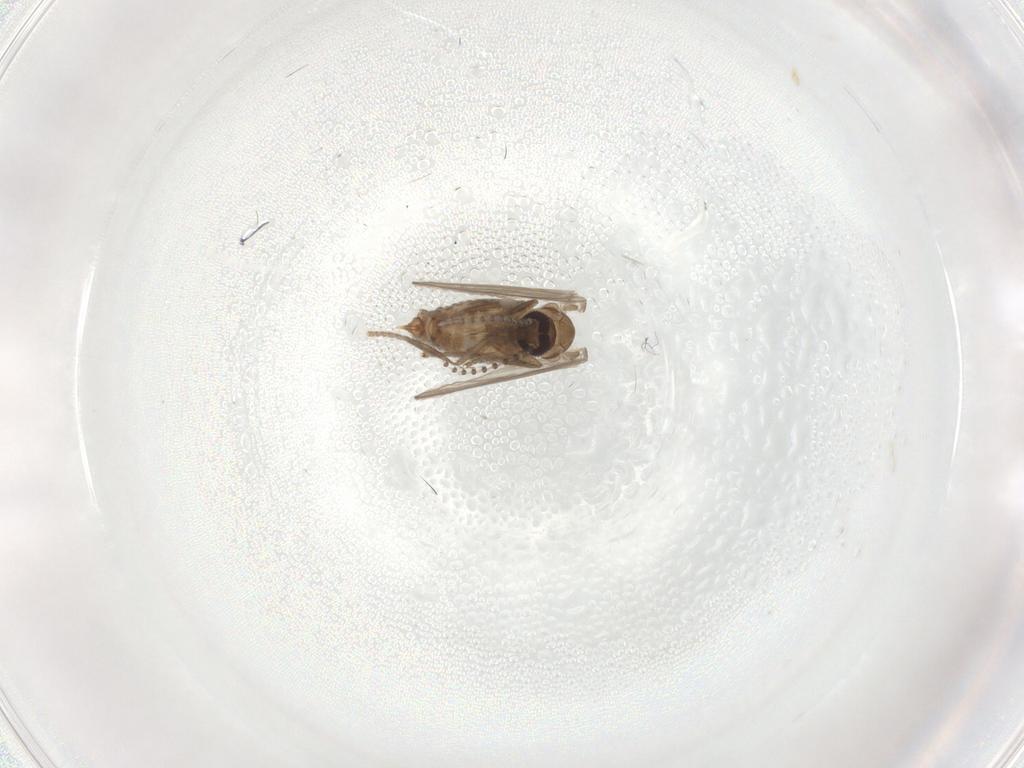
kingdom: Animalia
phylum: Arthropoda
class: Insecta
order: Diptera
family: Psychodidae
